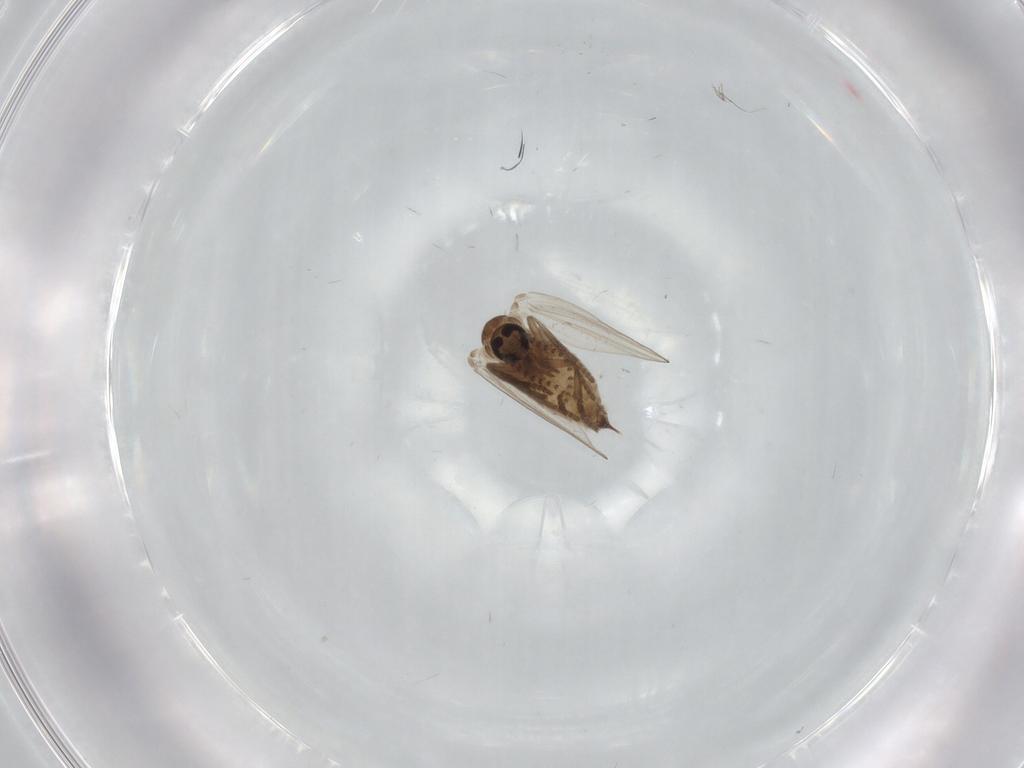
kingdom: Animalia
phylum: Arthropoda
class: Insecta
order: Diptera
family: Psychodidae
